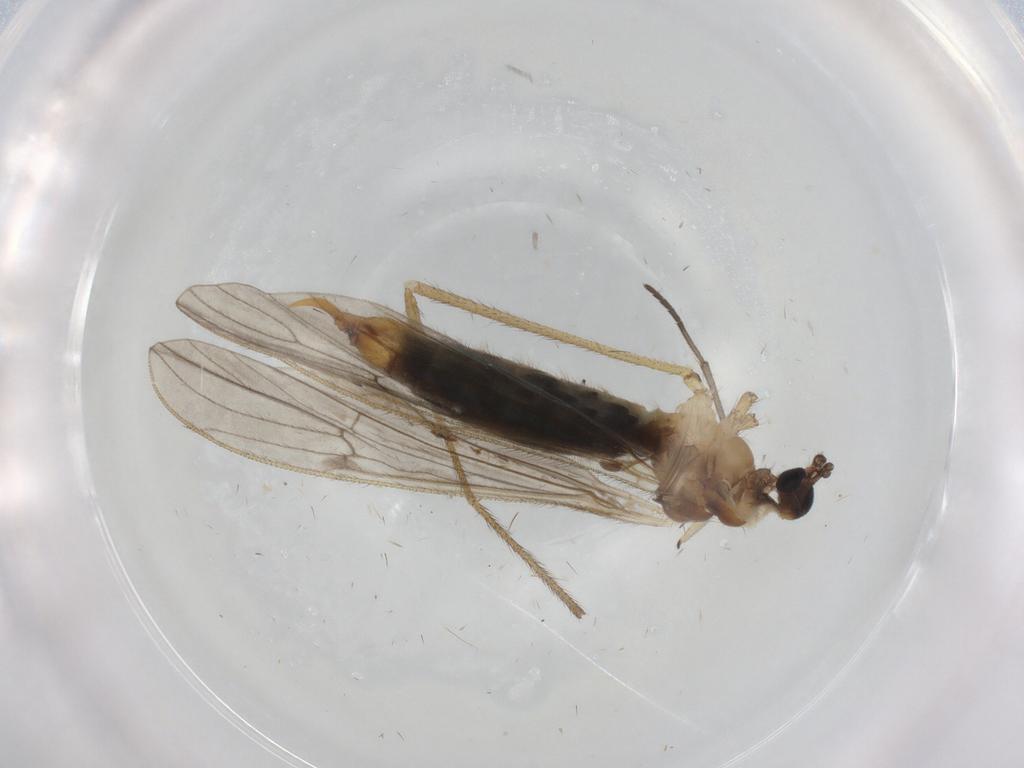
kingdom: Animalia
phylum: Arthropoda
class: Insecta
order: Diptera
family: Limoniidae
